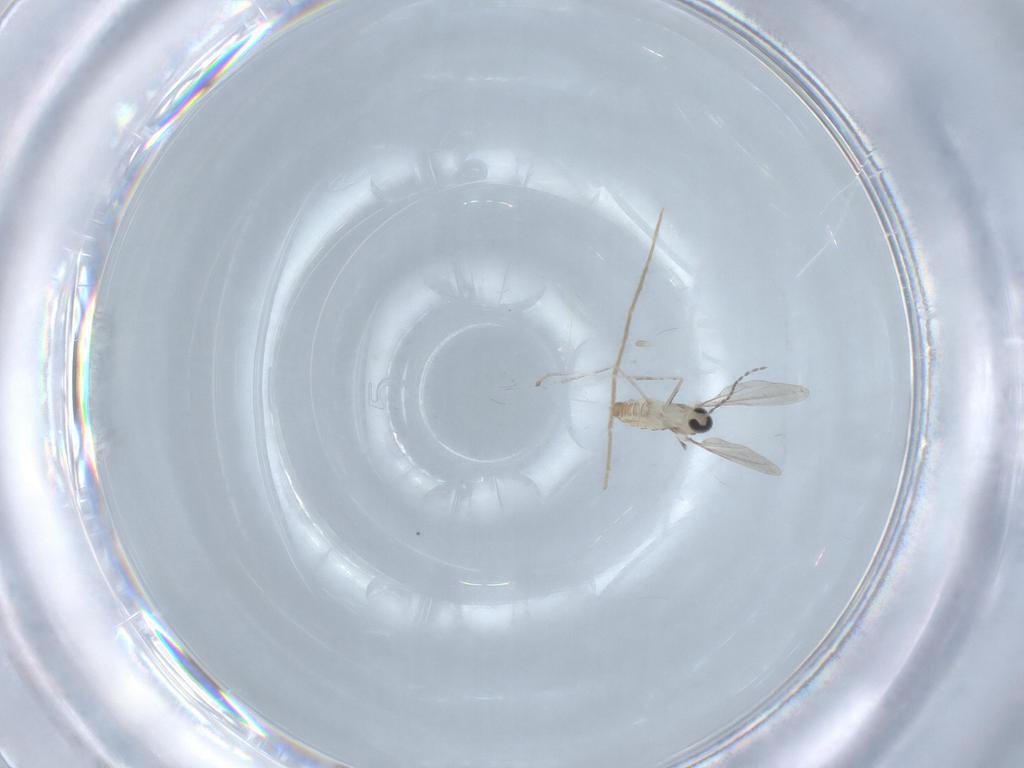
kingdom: Animalia
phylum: Arthropoda
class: Insecta
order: Diptera
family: Cecidomyiidae
